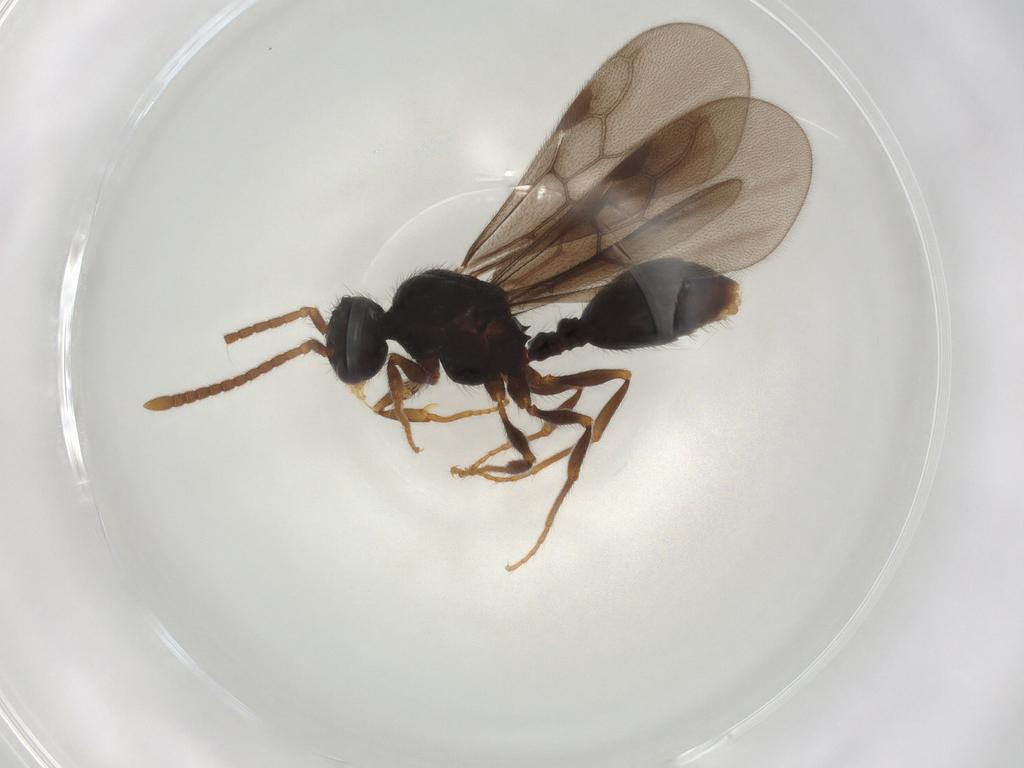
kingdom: Animalia
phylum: Arthropoda
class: Insecta
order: Hymenoptera
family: Formicidae
